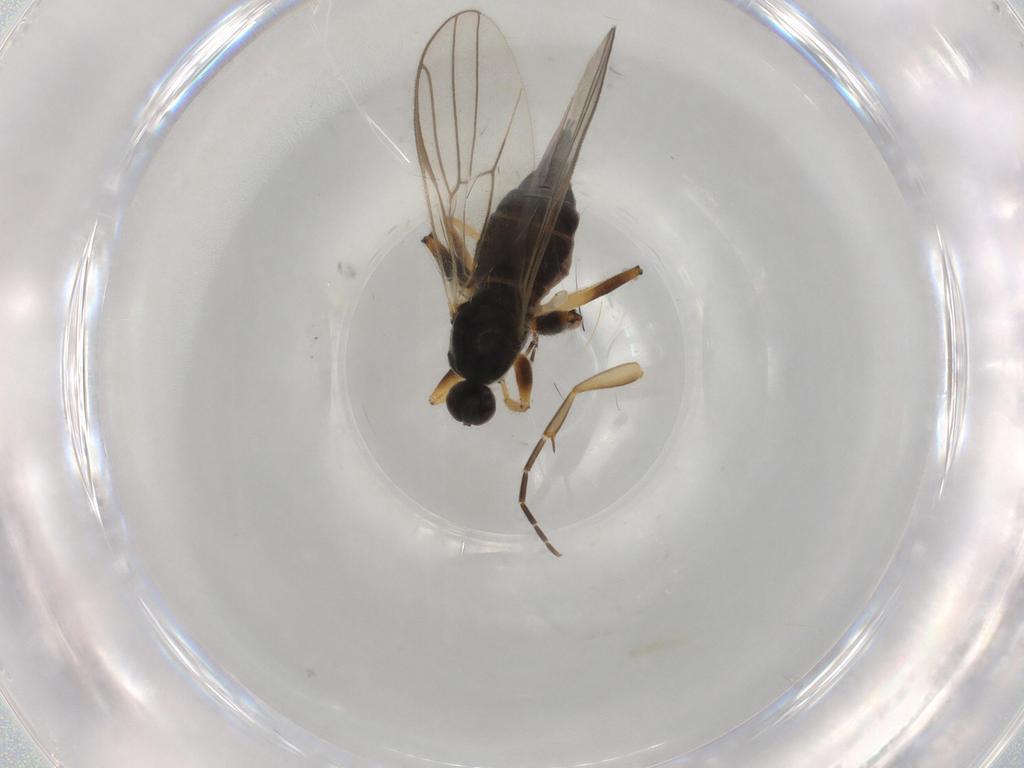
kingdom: Animalia
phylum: Arthropoda
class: Insecta
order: Diptera
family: Hybotidae
